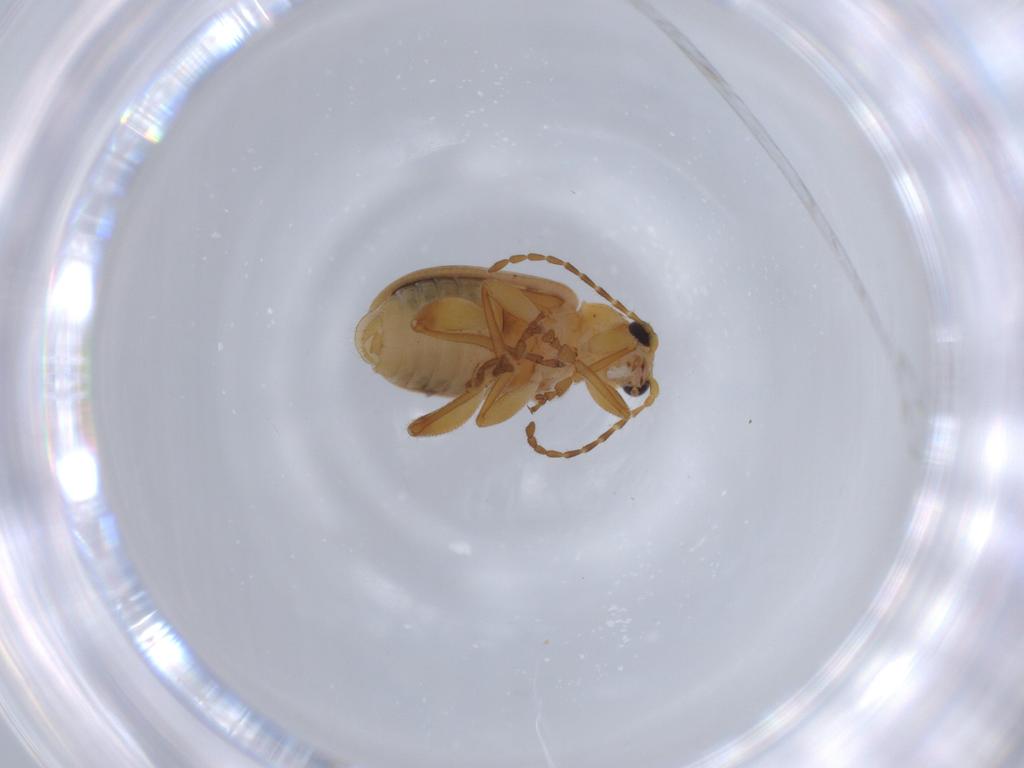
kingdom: Animalia
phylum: Arthropoda
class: Insecta
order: Coleoptera
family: Chrysomelidae
